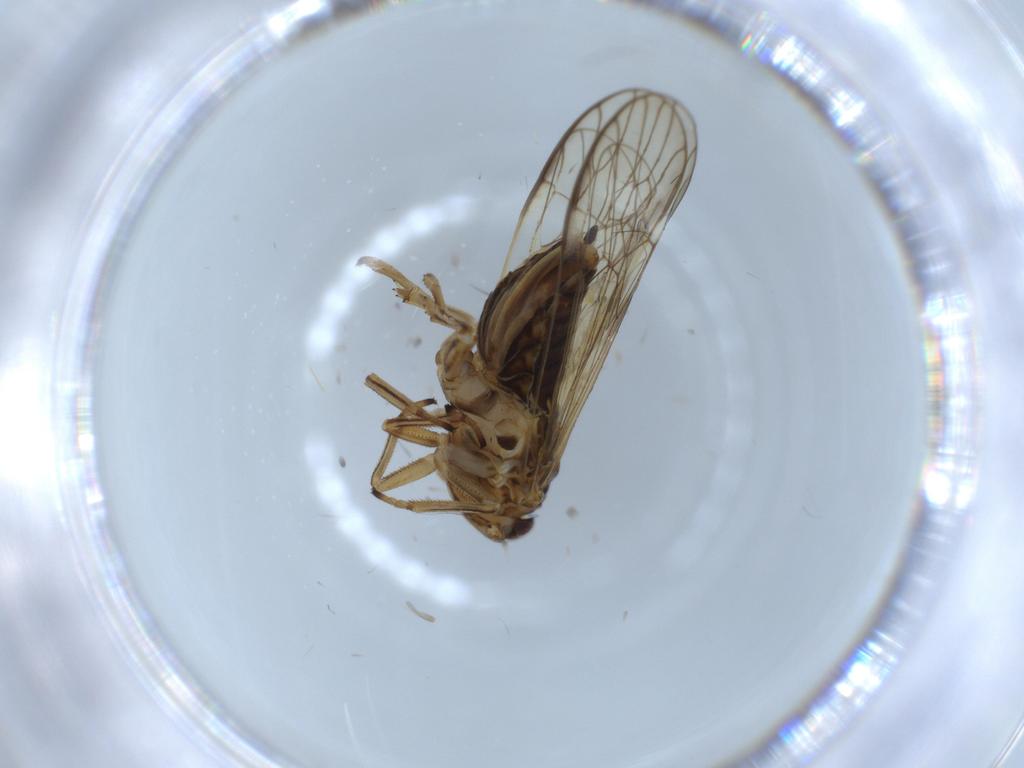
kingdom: Animalia
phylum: Arthropoda
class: Insecta
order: Hemiptera
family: Delphacidae
